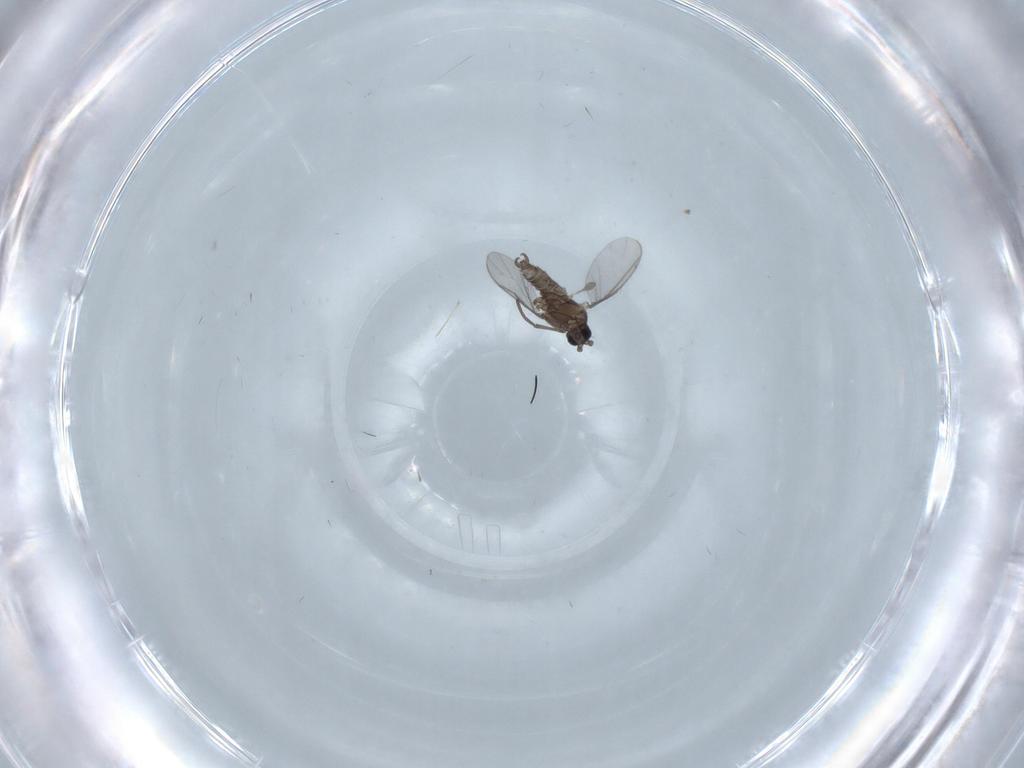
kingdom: Animalia
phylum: Arthropoda
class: Insecta
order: Diptera
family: Sciaridae
